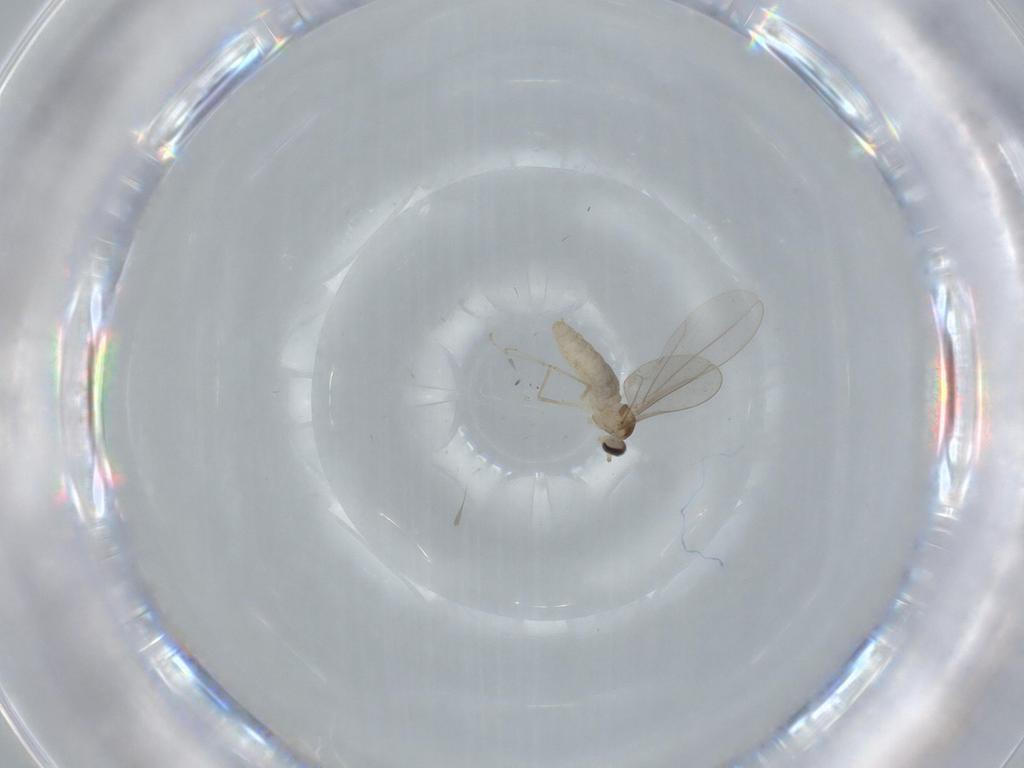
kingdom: Animalia
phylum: Arthropoda
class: Insecta
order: Diptera
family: Cecidomyiidae
